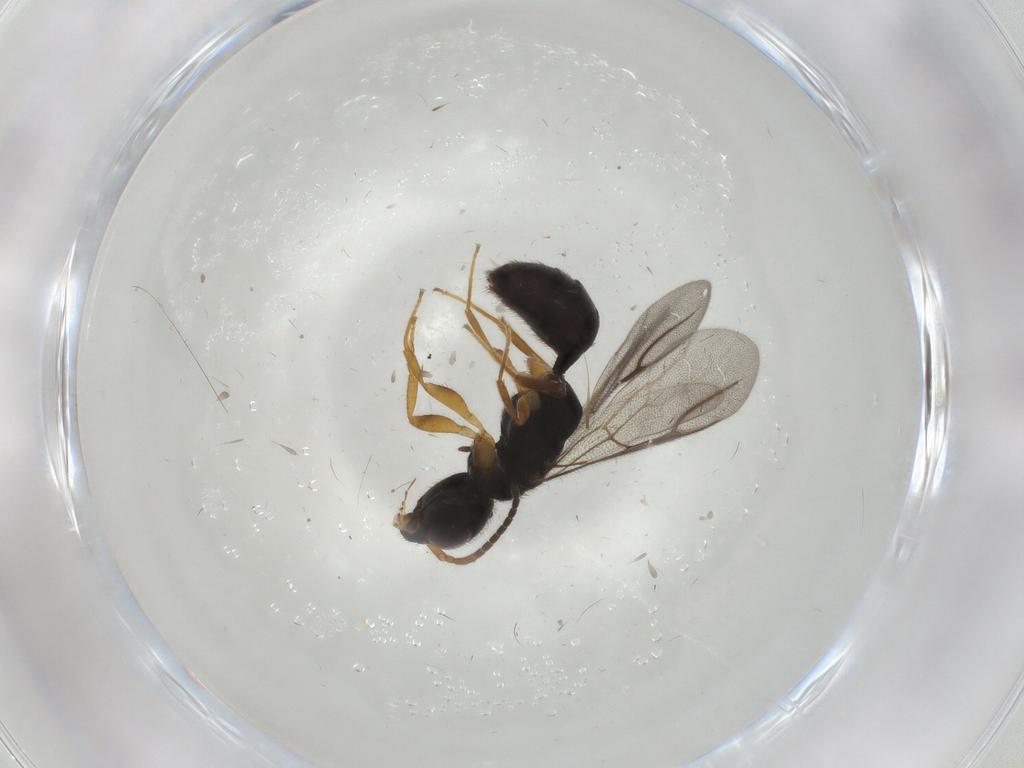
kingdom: Animalia
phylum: Arthropoda
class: Insecta
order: Hymenoptera
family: Bethylidae
